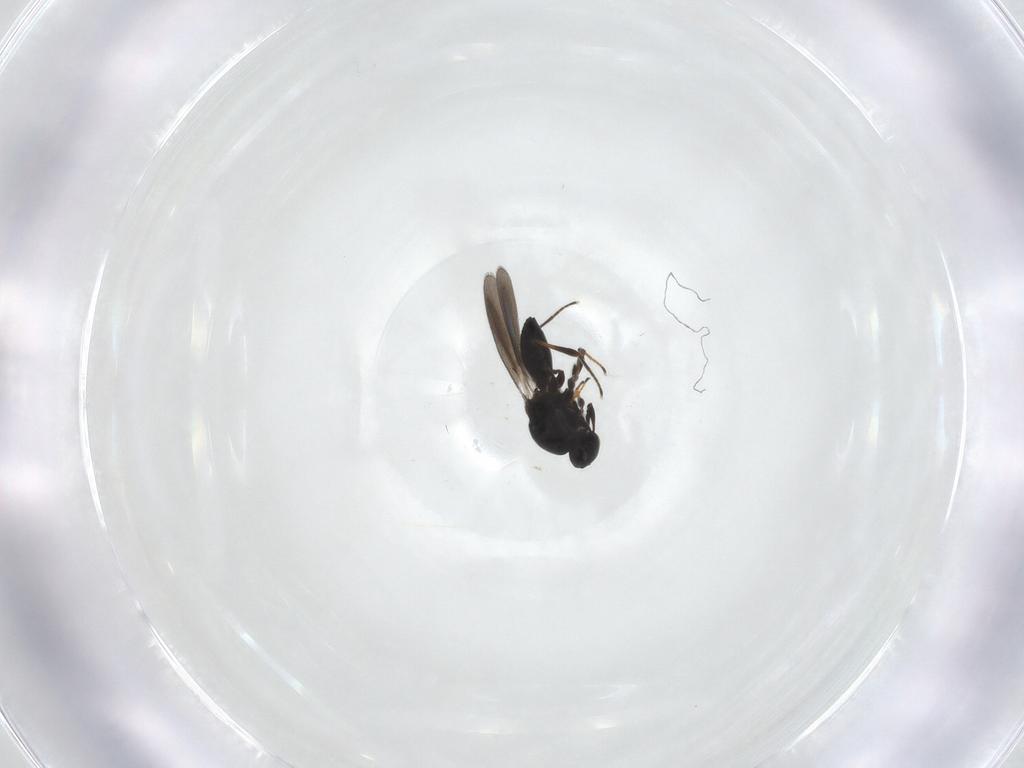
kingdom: Animalia
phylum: Arthropoda
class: Insecta
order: Hymenoptera
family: Platygastridae
